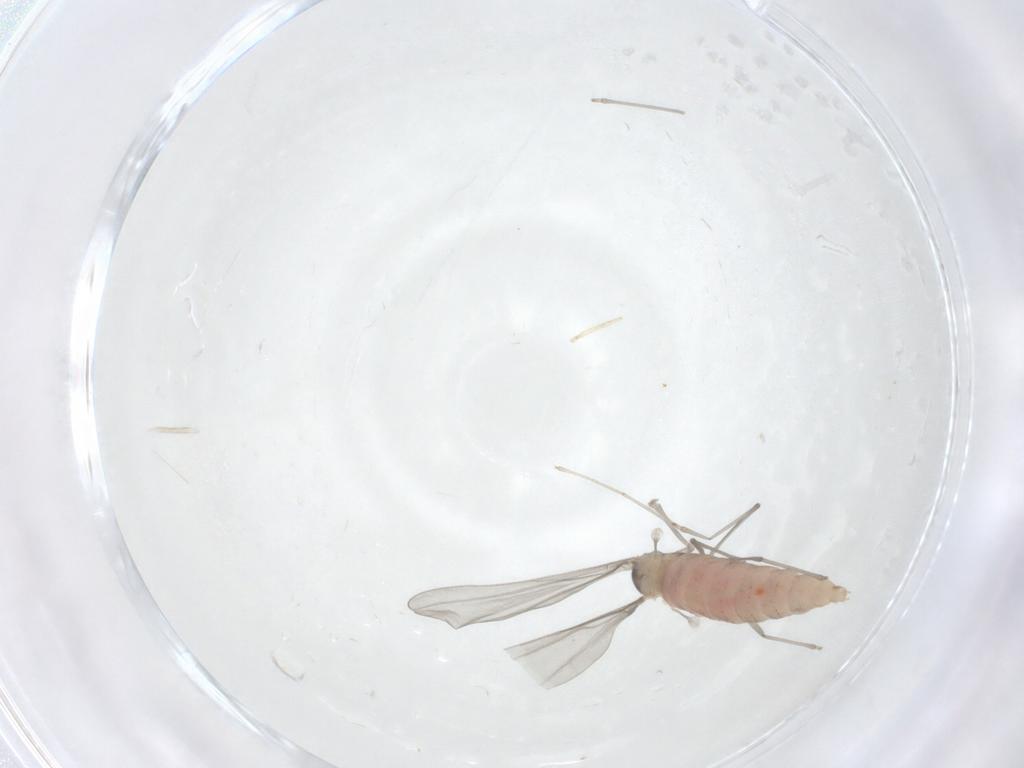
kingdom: Animalia
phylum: Arthropoda
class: Insecta
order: Diptera
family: Cecidomyiidae
